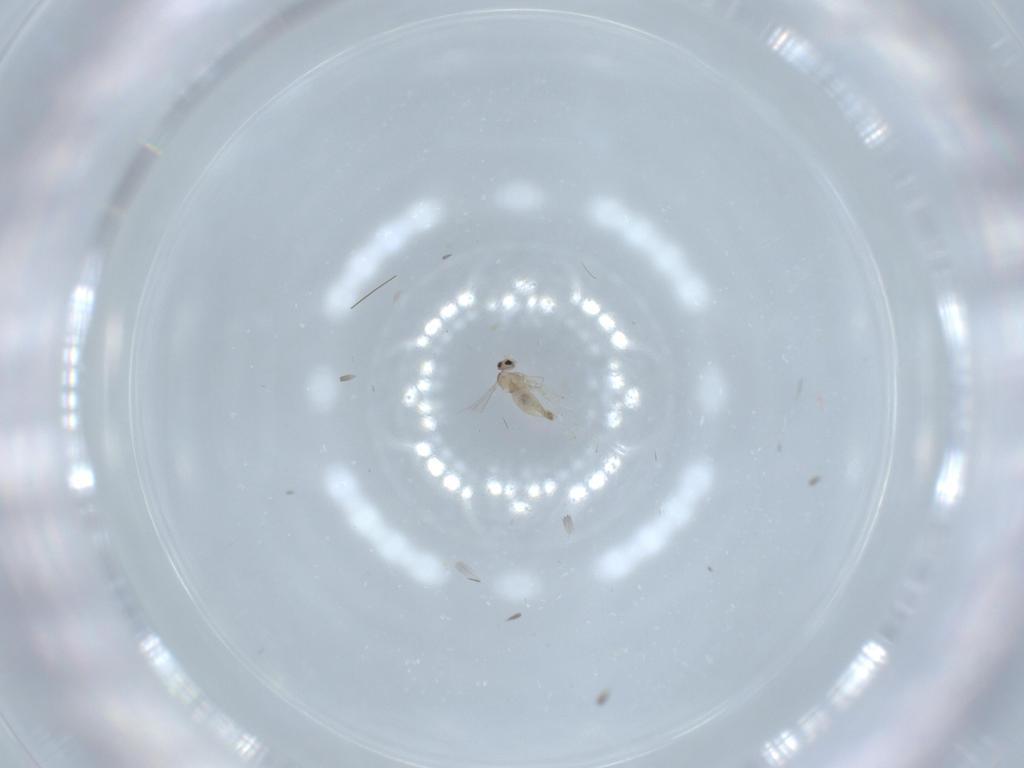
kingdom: Animalia
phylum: Arthropoda
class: Insecta
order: Diptera
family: Cecidomyiidae
